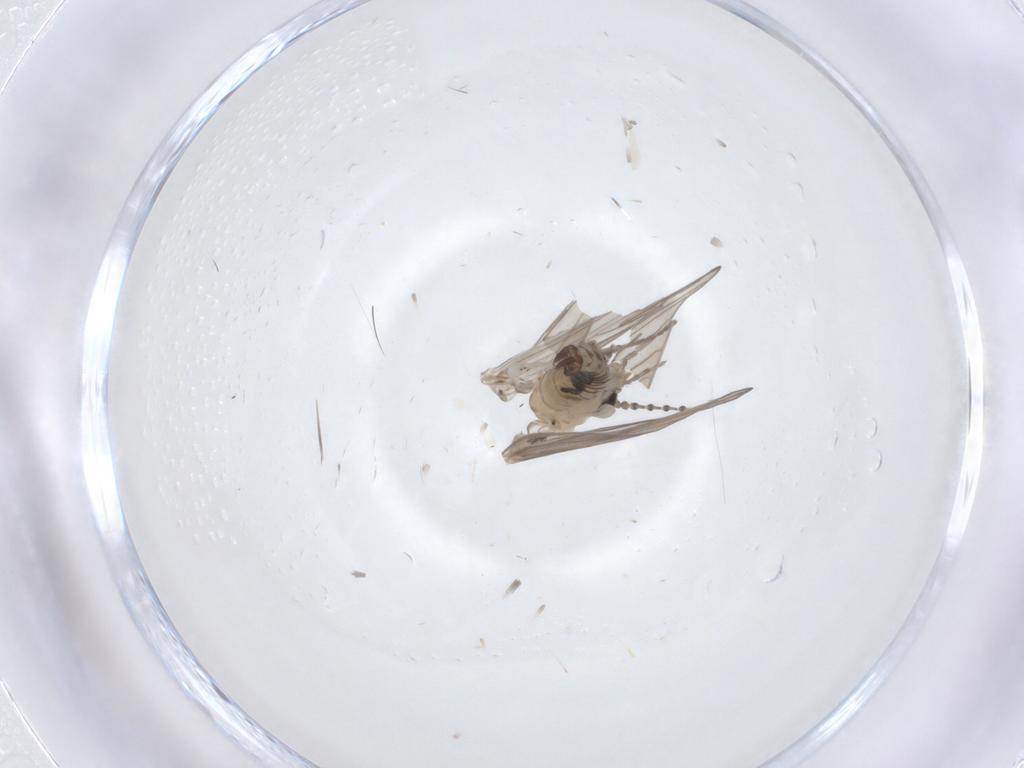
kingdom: Animalia
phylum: Arthropoda
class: Insecta
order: Diptera
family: Psychodidae
